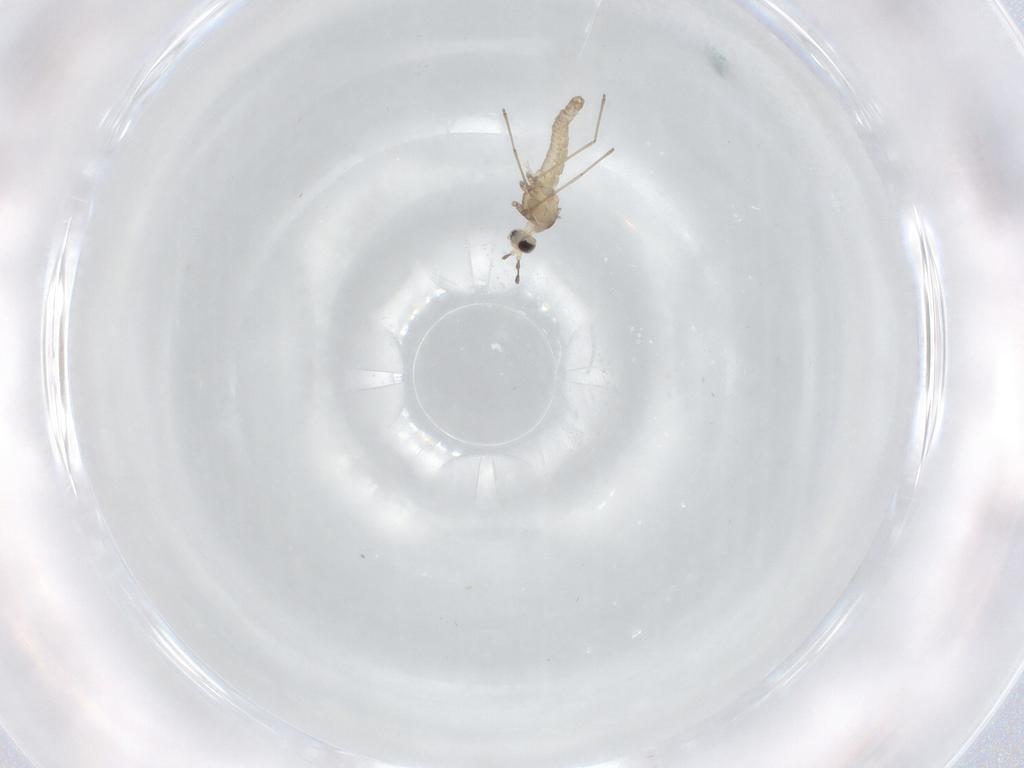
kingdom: Animalia
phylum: Arthropoda
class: Insecta
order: Diptera
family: Cecidomyiidae
